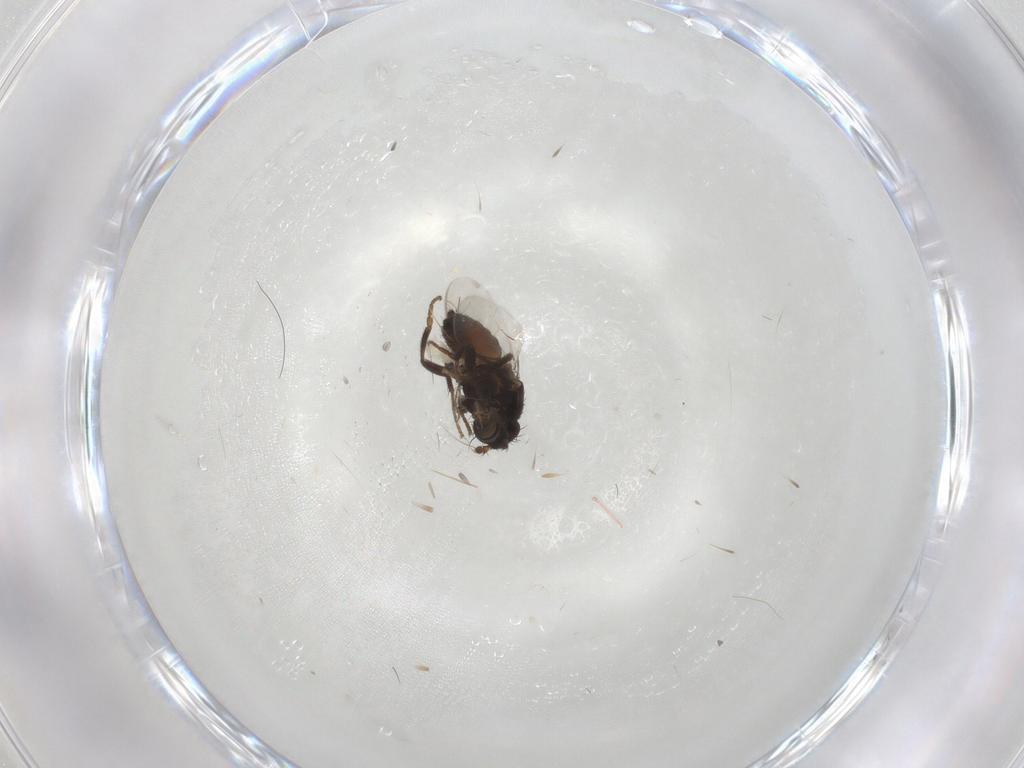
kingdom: Animalia
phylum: Arthropoda
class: Insecta
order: Diptera
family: Sphaeroceridae
